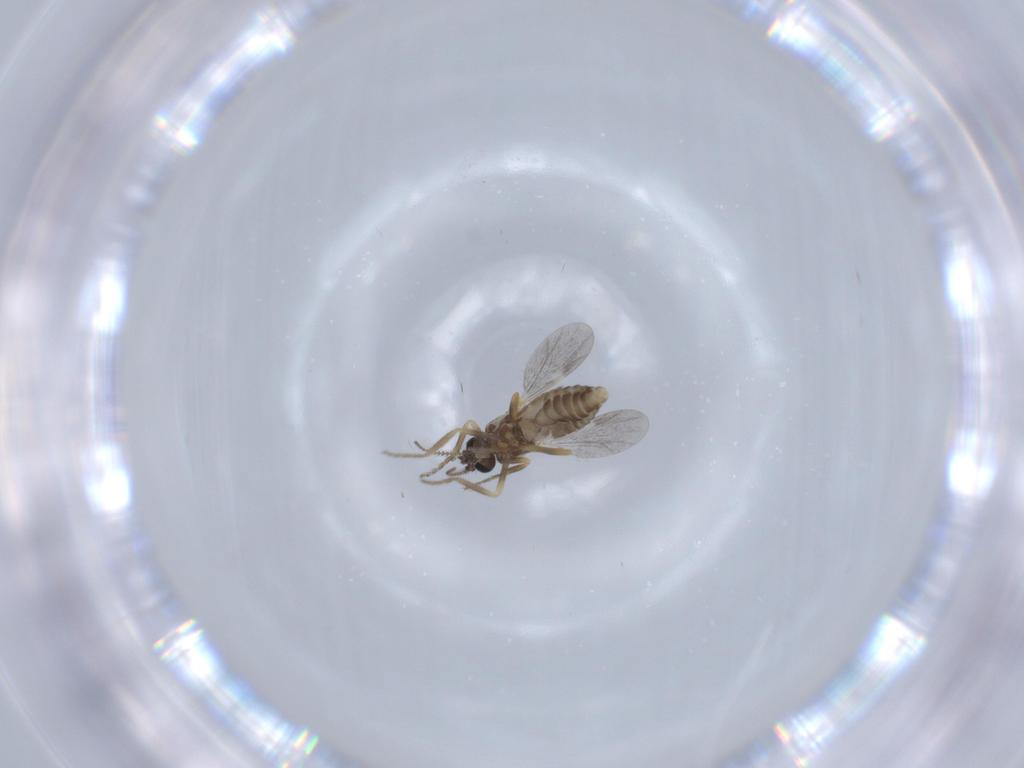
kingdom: Animalia
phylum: Arthropoda
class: Insecta
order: Diptera
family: Ceratopogonidae
